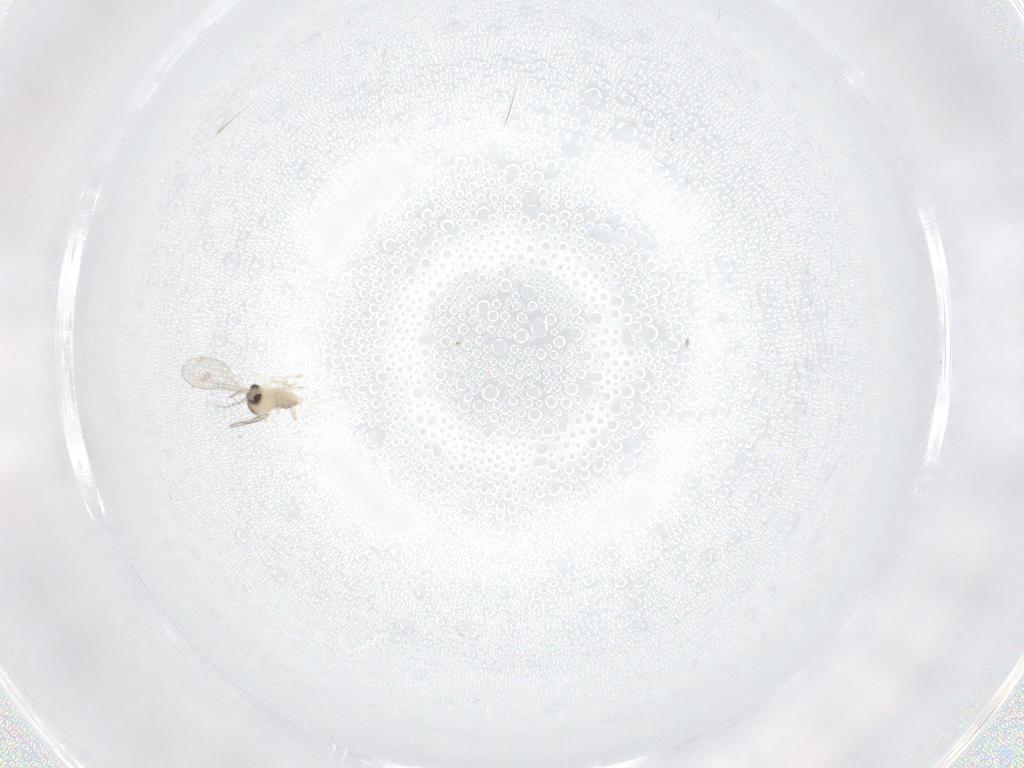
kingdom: Animalia
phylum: Arthropoda
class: Insecta
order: Diptera
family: Cecidomyiidae
